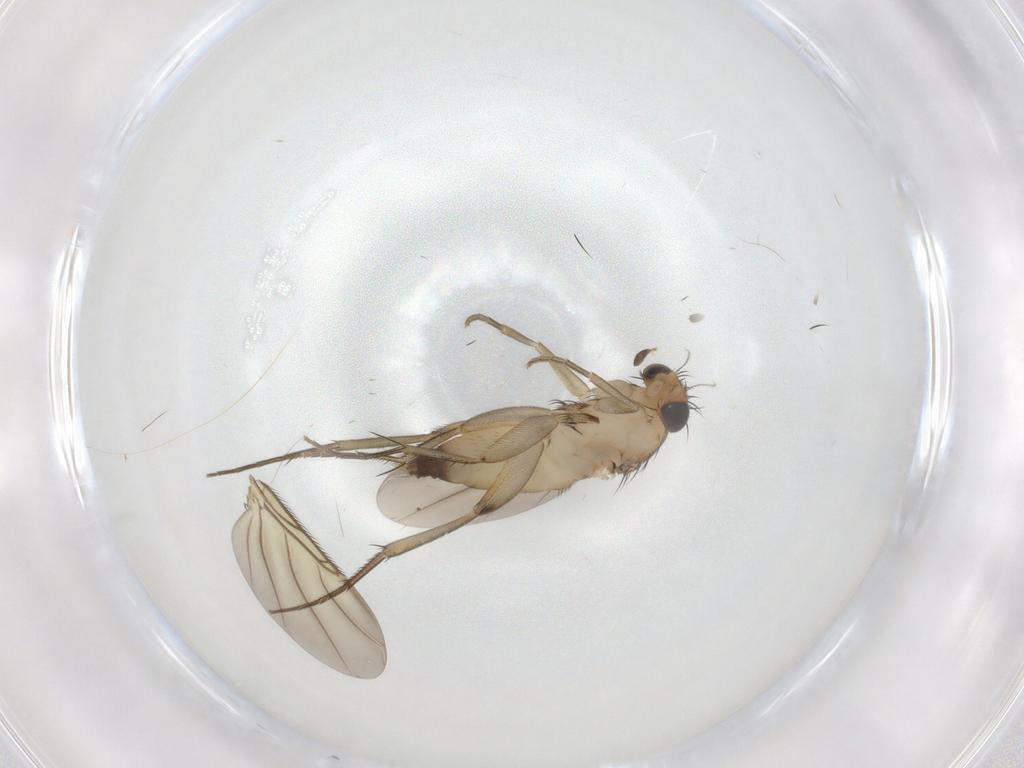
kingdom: Animalia
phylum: Arthropoda
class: Insecta
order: Diptera
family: Phoridae
